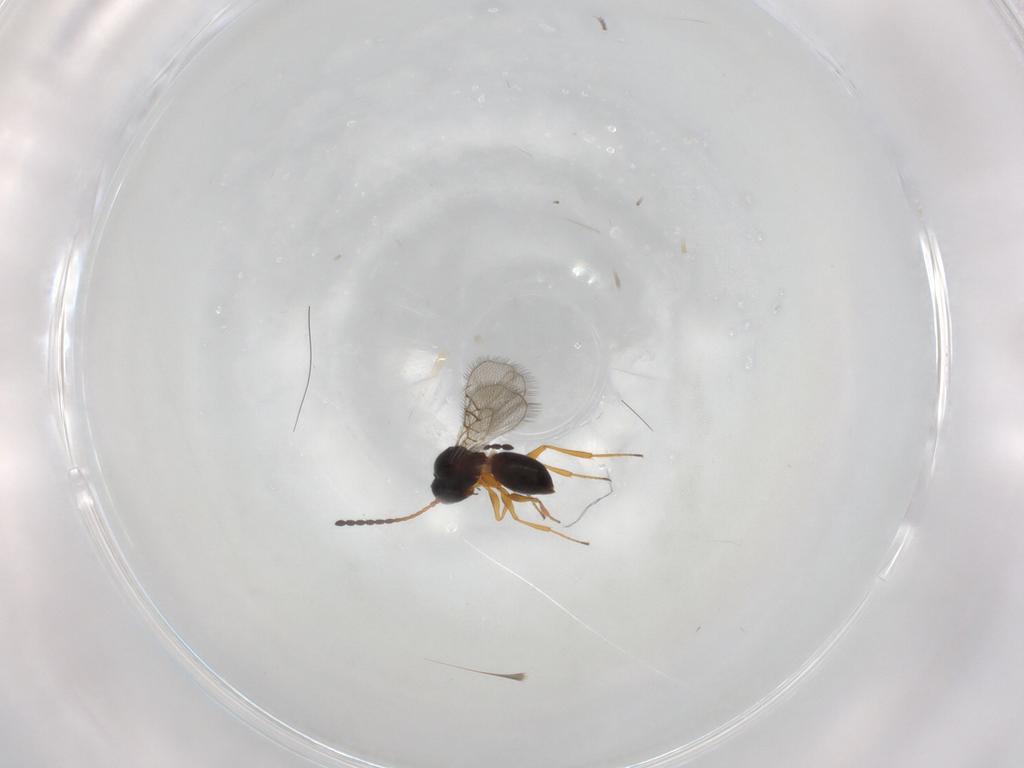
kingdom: Animalia
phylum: Arthropoda
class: Insecta
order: Hymenoptera
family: Figitidae
